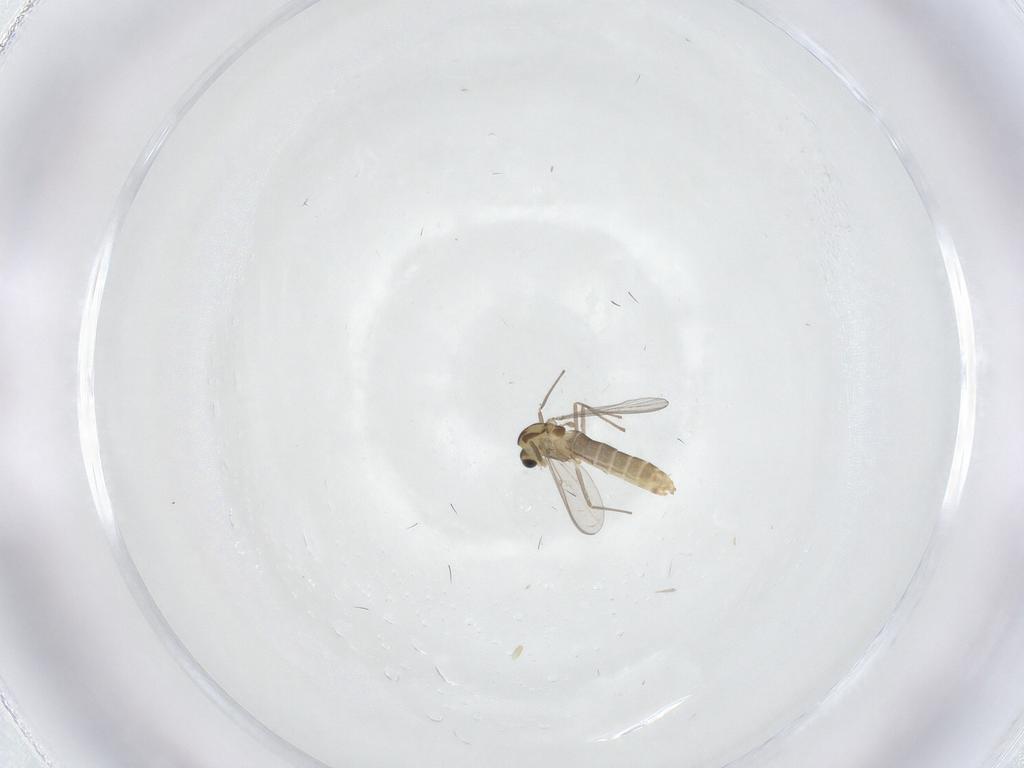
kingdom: Animalia
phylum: Arthropoda
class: Insecta
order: Diptera
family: Chironomidae
